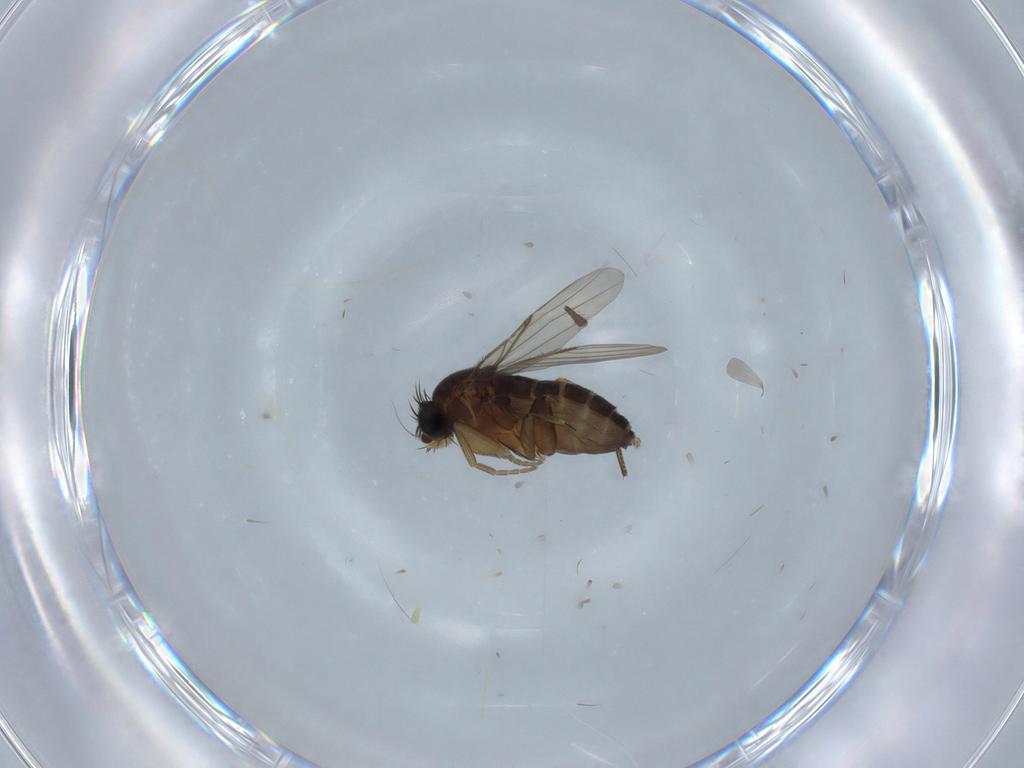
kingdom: Animalia
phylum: Arthropoda
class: Insecta
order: Diptera
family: Phoridae
